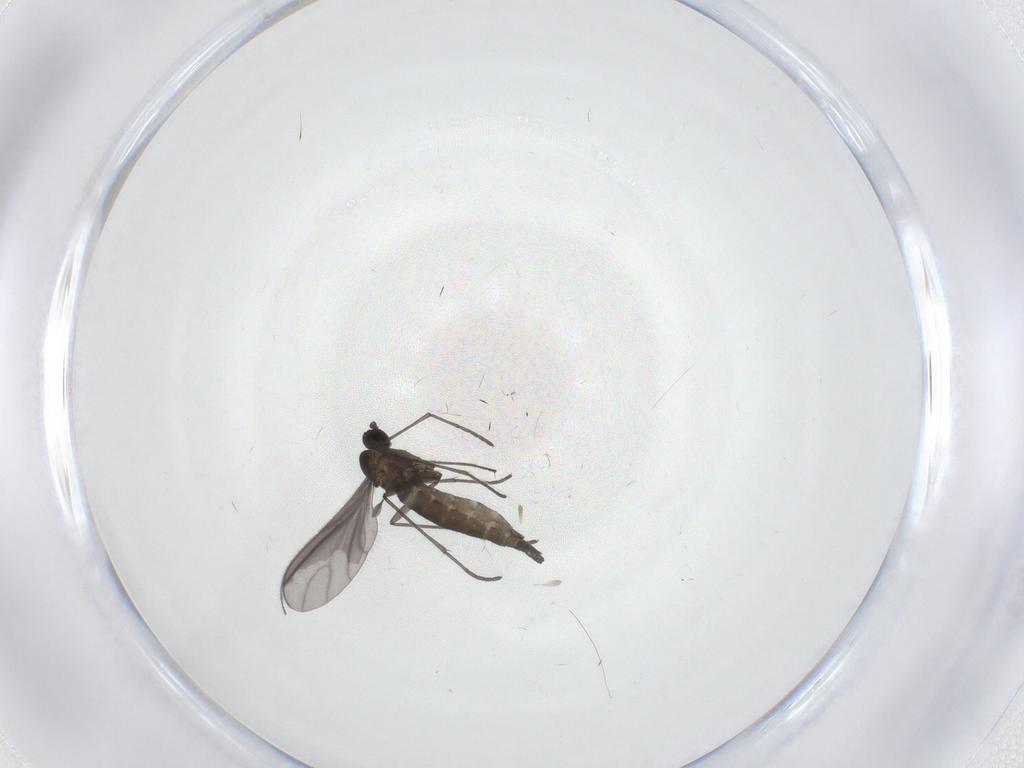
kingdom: Animalia
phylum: Arthropoda
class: Insecta
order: Diptera
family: Sciaridae
